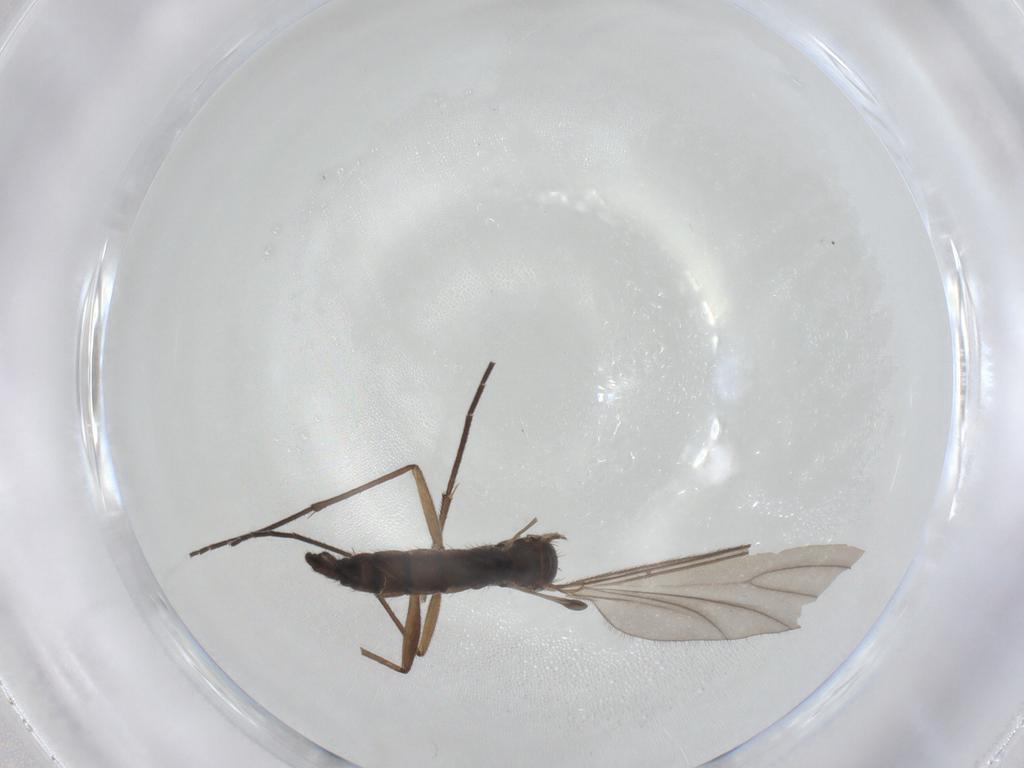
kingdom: Animalia
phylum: Arthropoda
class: Insecta
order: Diptera
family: Sciaridae
